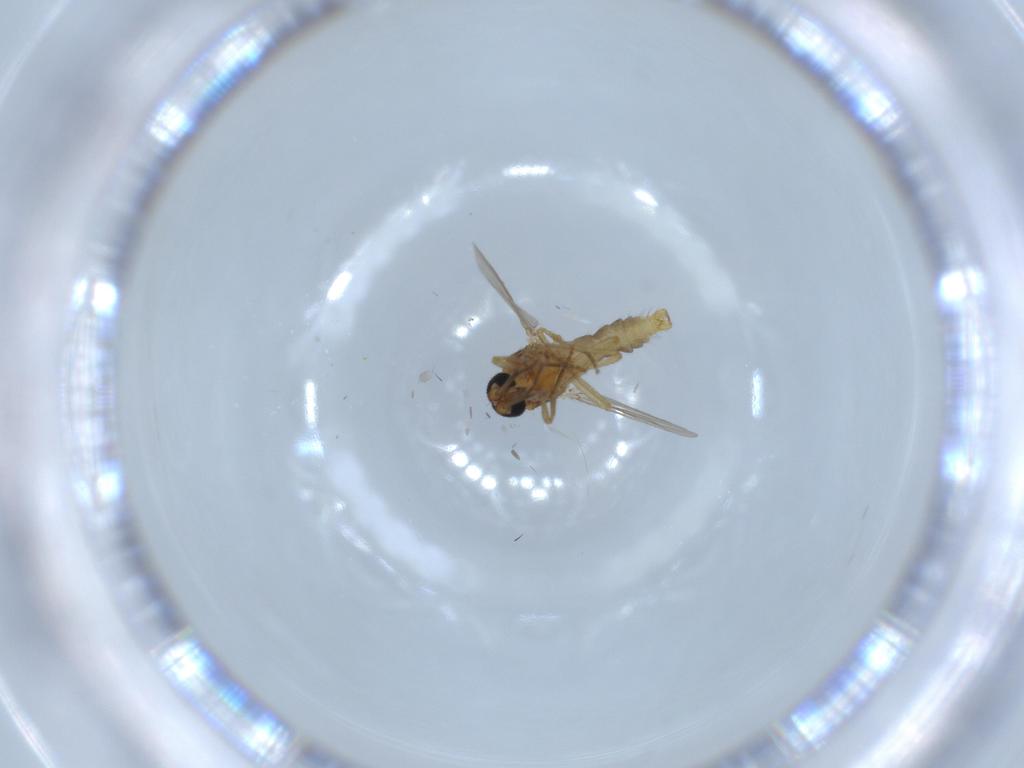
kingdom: Animalia
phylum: Arthropoda
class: Insecta
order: Diptera
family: Ceratopogonidae
